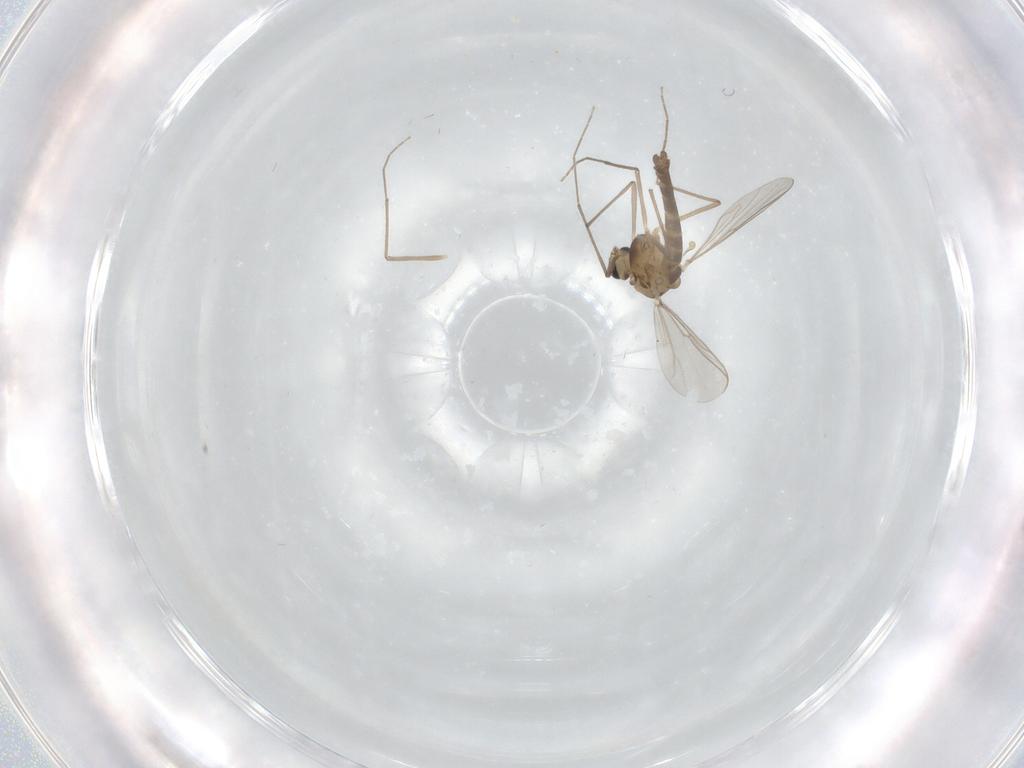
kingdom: Animalia
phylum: Arthropoda
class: Insecta
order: Diptera
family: Chironomidae
